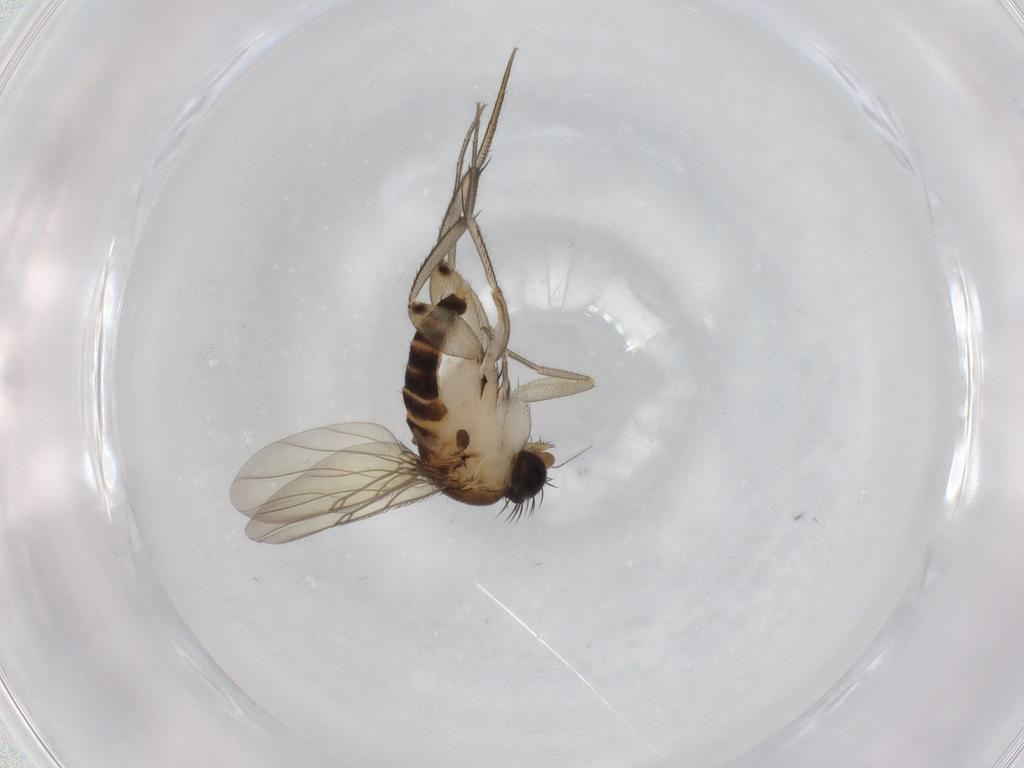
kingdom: Animalia
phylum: Arthropoda
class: Insecta
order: Diptera
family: Phoridae
